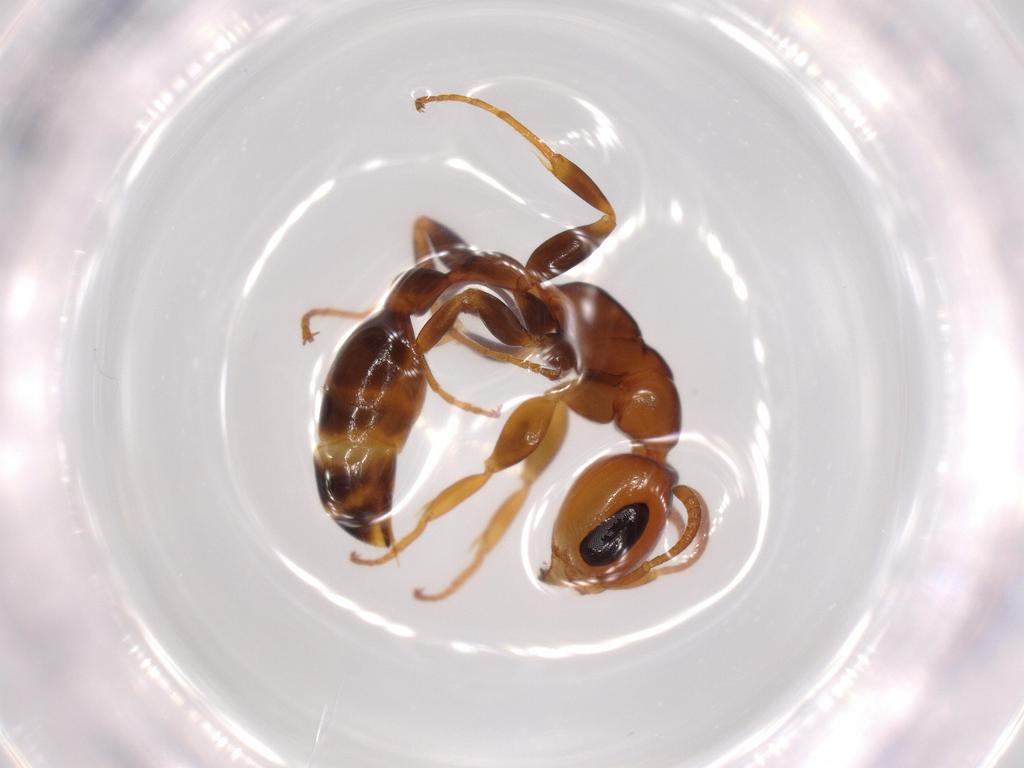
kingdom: Animalia
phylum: Arthropoda
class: Insecta
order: Hymenoptera
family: Formicidae
